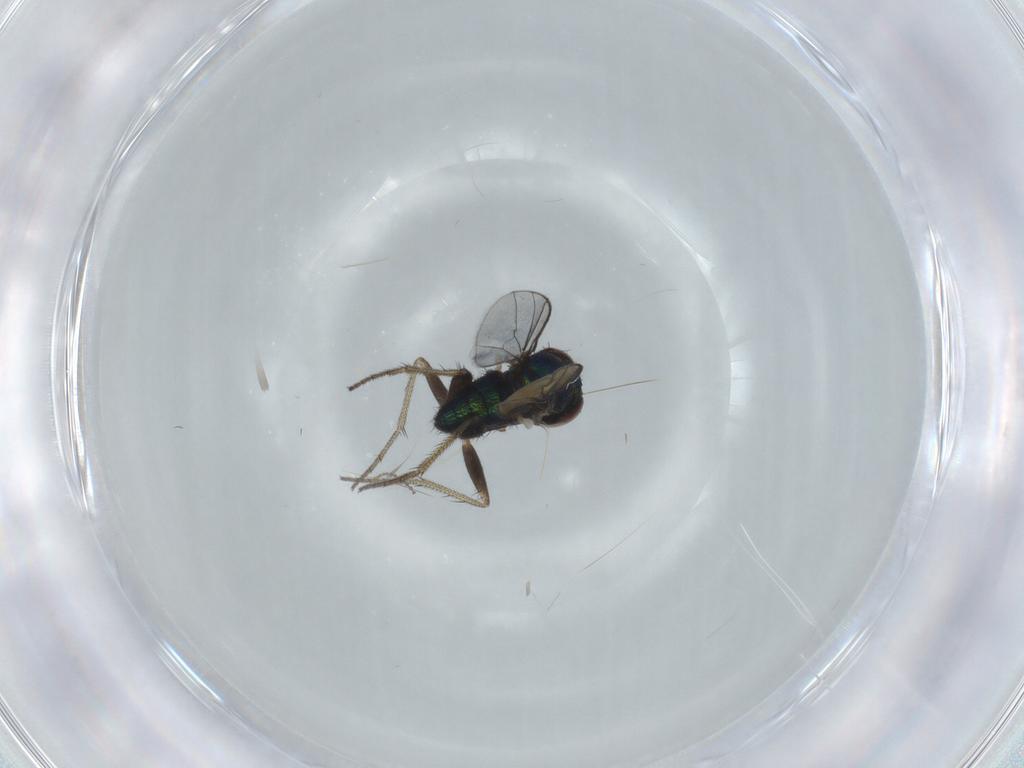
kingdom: Animalia
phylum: Arthropoda
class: Insecta
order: Diptera
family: Dolichopodidae
